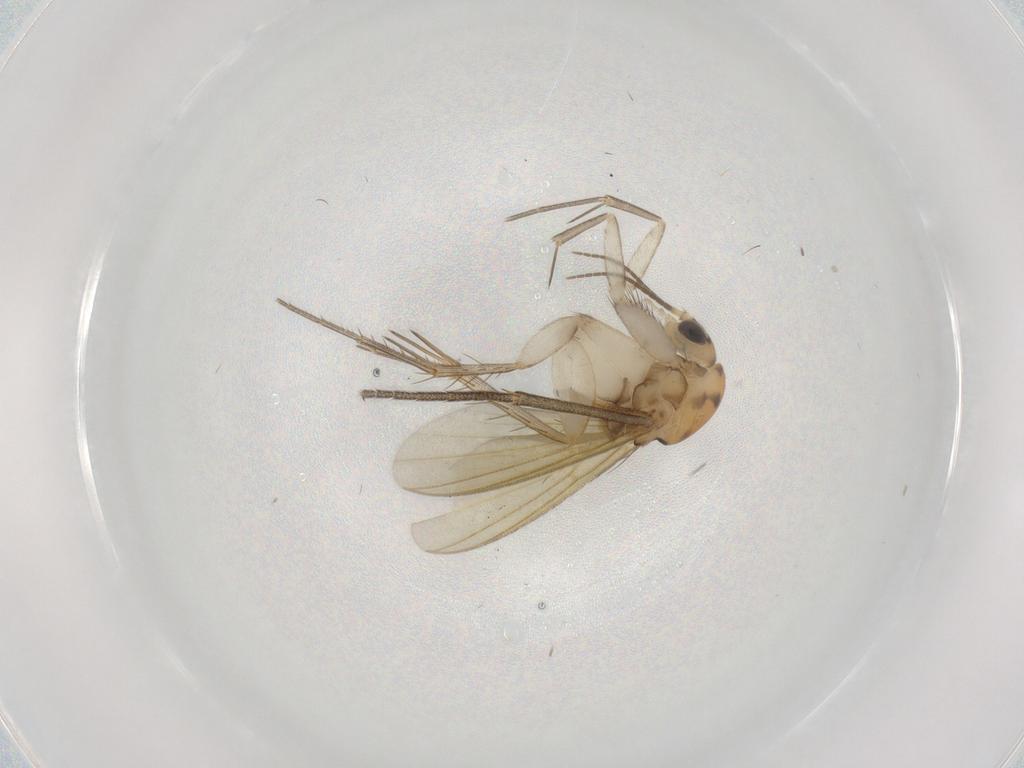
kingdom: Animalia
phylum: Arthropoda
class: Insecta
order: Diptera
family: Mycetophilidae
